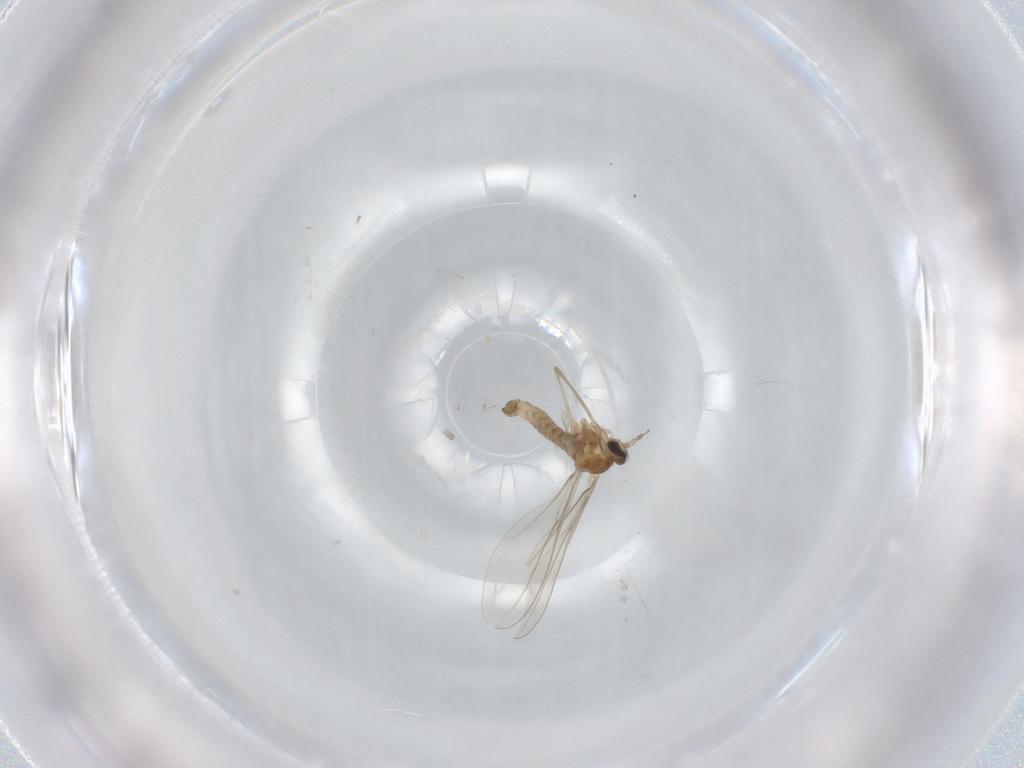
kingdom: Animalia
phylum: Arthropoda
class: Insecta
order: Diptera
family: Cecidomyiidae
